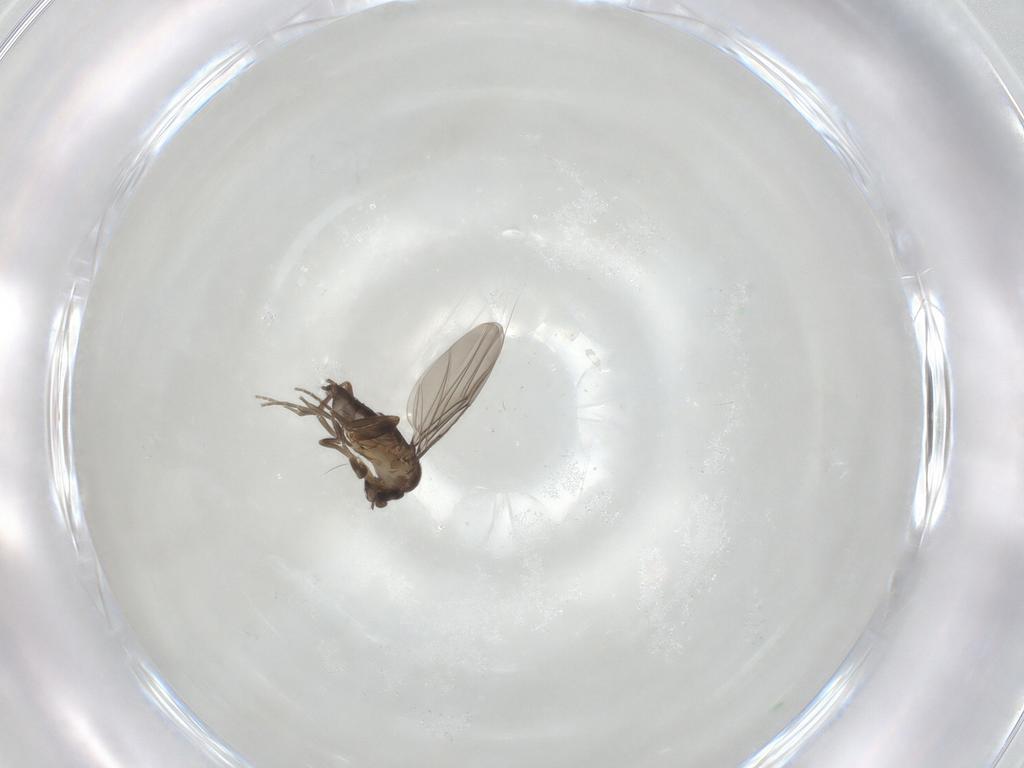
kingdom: Animalia
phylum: Arthropoda
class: Insecta
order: Diptera
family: Phoridae
